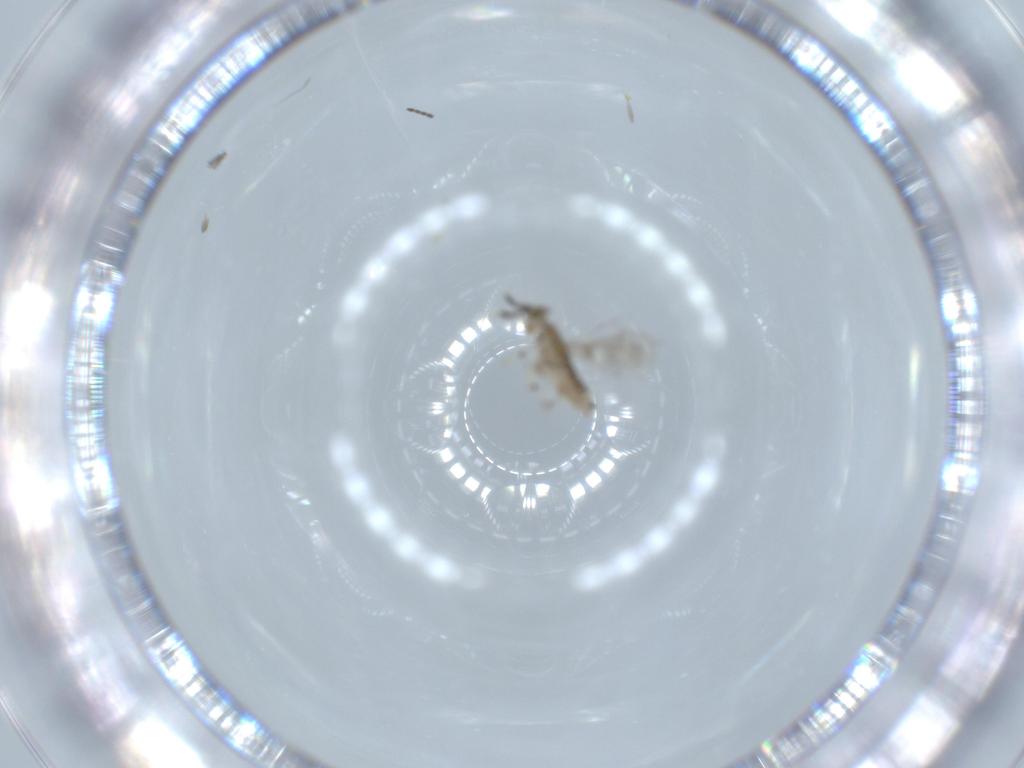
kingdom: Animalia
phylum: Arthropoda
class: Insecta
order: Hymenoptera
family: Aphelinidae
